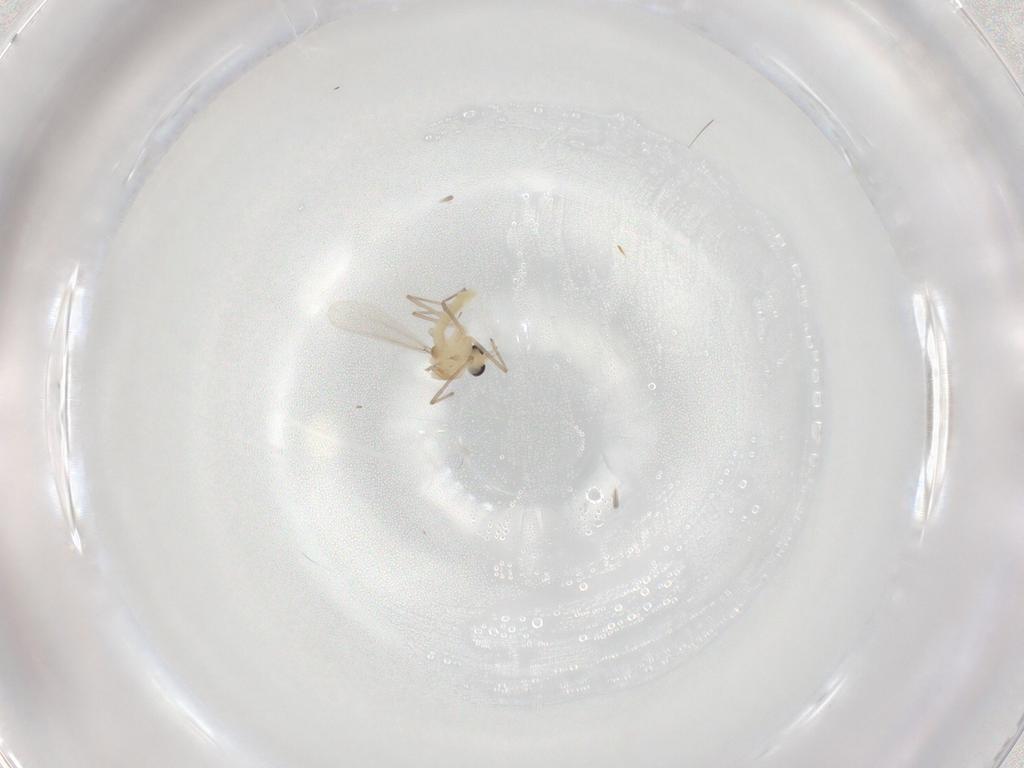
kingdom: Animalia
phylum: Arthropoda
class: Insecta
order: Diptera
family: Chironomidae
